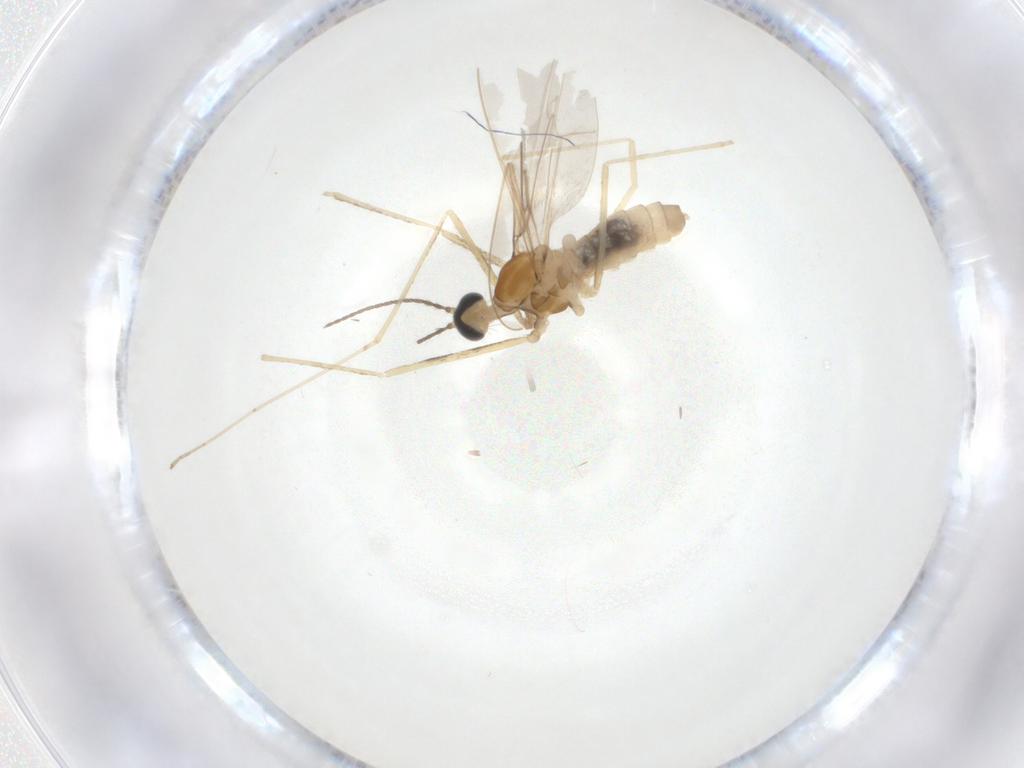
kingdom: Animalia
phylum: Arthropoda
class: Insecta
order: Diptera
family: Cecidomyiidae
